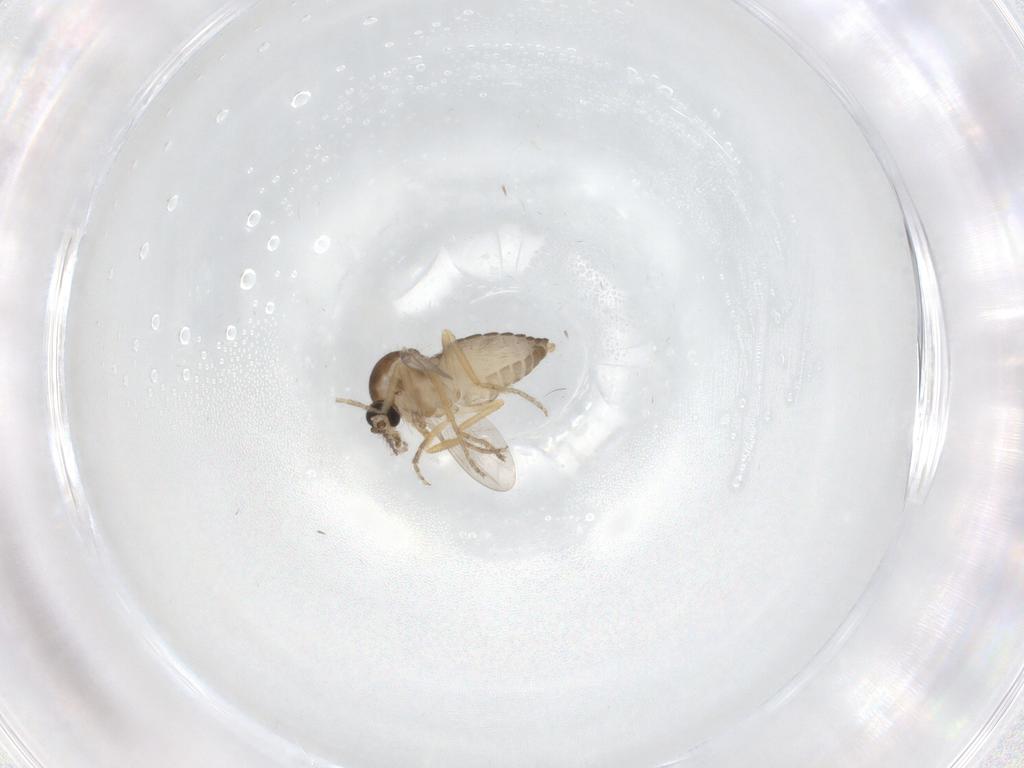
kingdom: Animalia
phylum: Arthropoda
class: Insecta
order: Diptera
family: Ceratopogonidae
